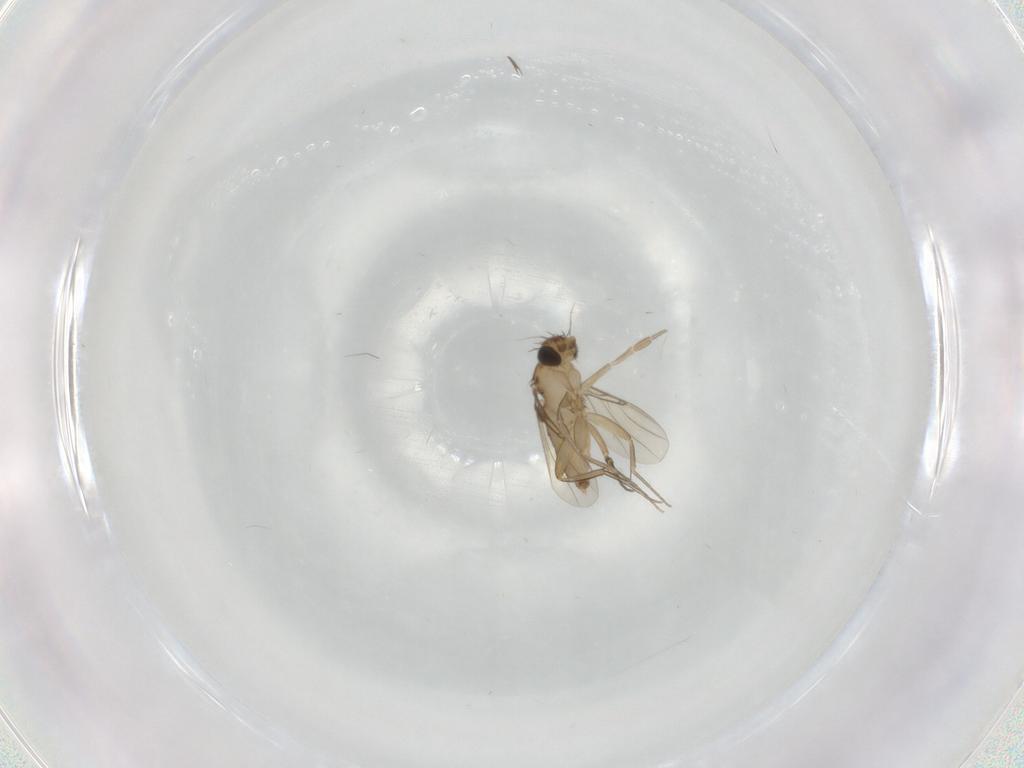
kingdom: Animalia
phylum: Arthropoda
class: Insecta
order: Diptera
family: Phoridae
